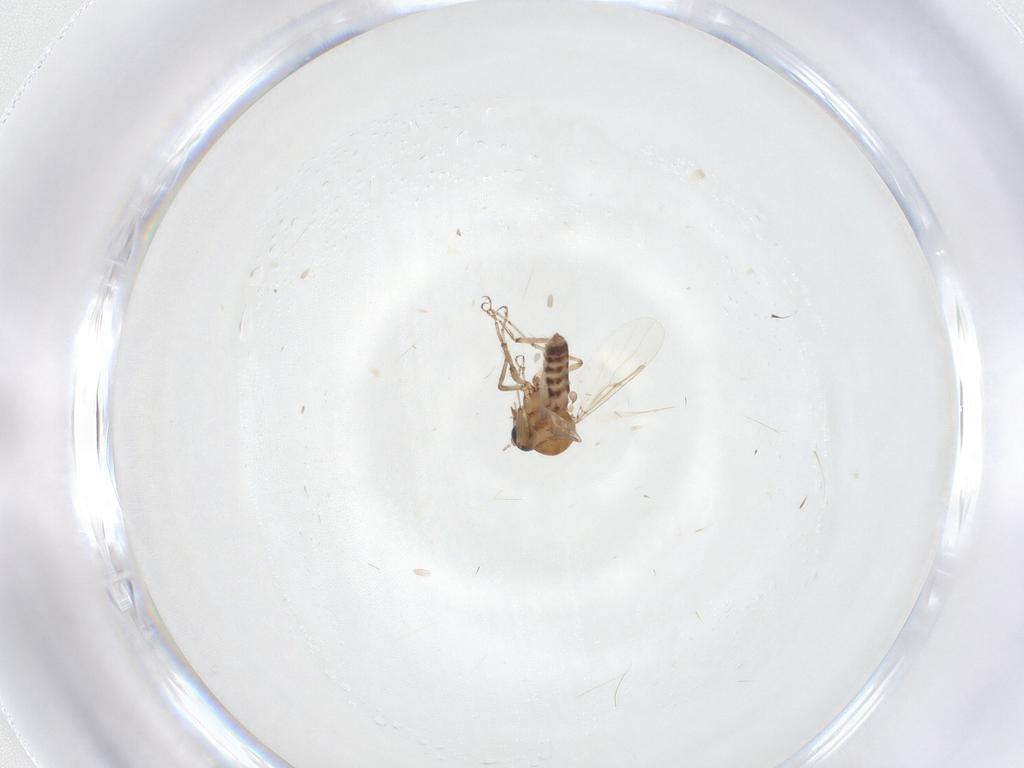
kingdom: Animalia
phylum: Arthropoda
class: Insecta
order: Diptera
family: Ceratopogonidae
